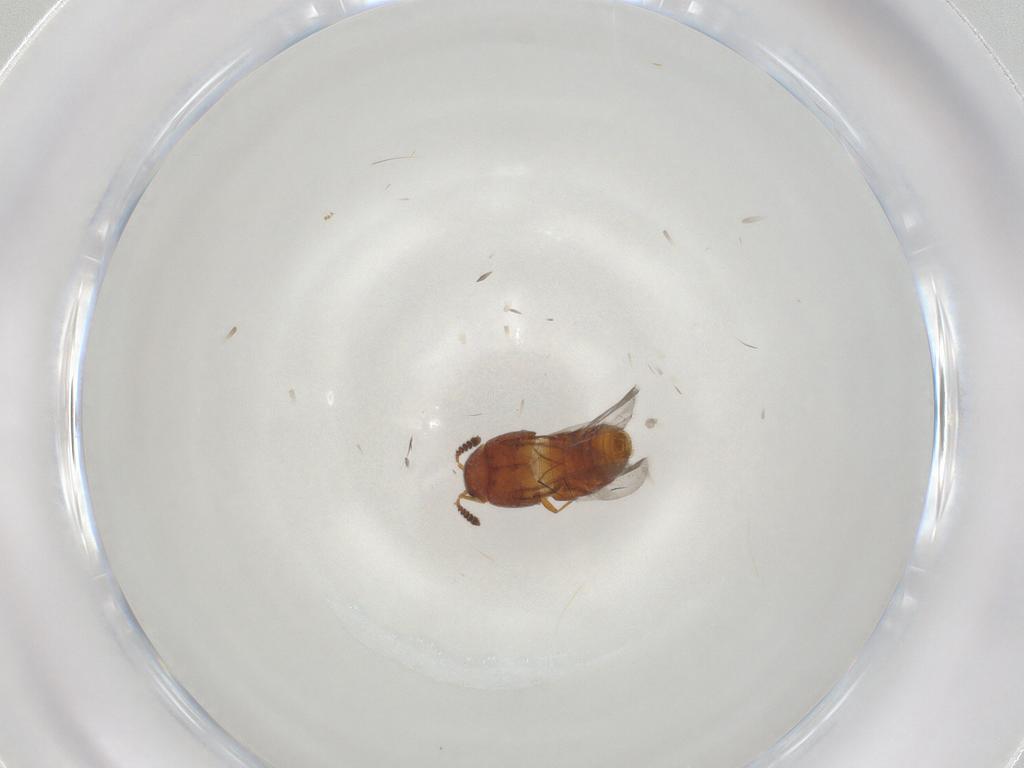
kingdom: Animalia
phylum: Arthropoda
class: Insecta
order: Coleoptera
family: Staphylinidae
